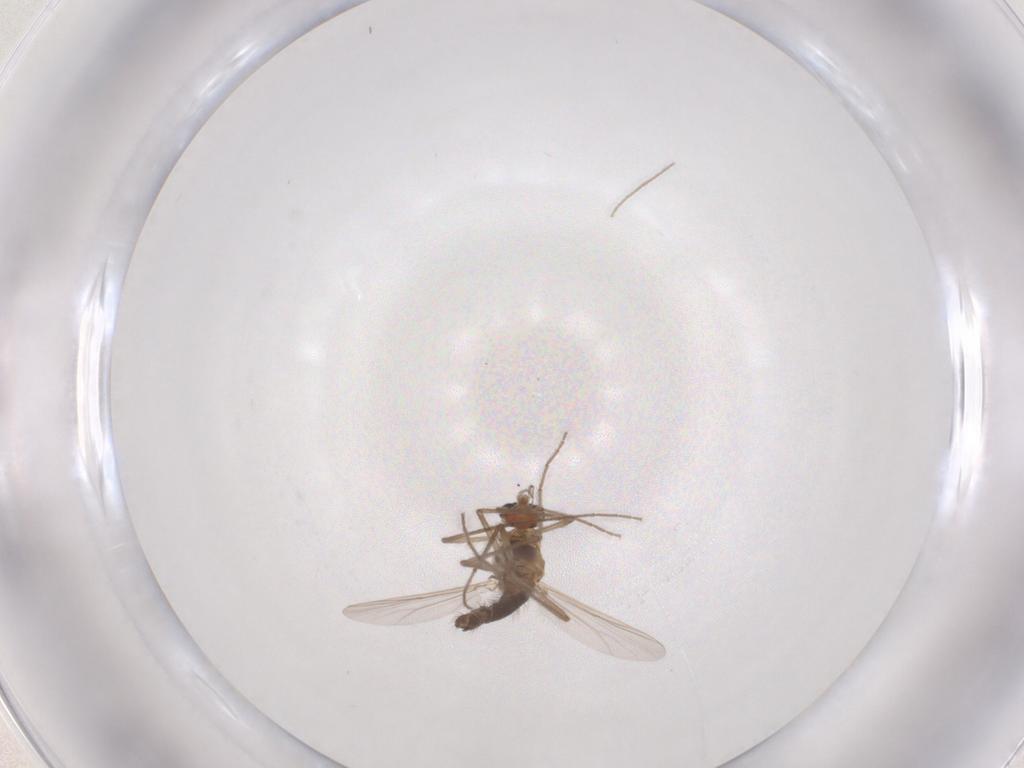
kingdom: Animalia
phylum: Arthropoda
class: Insecta
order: Diptera
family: Chironomidae
